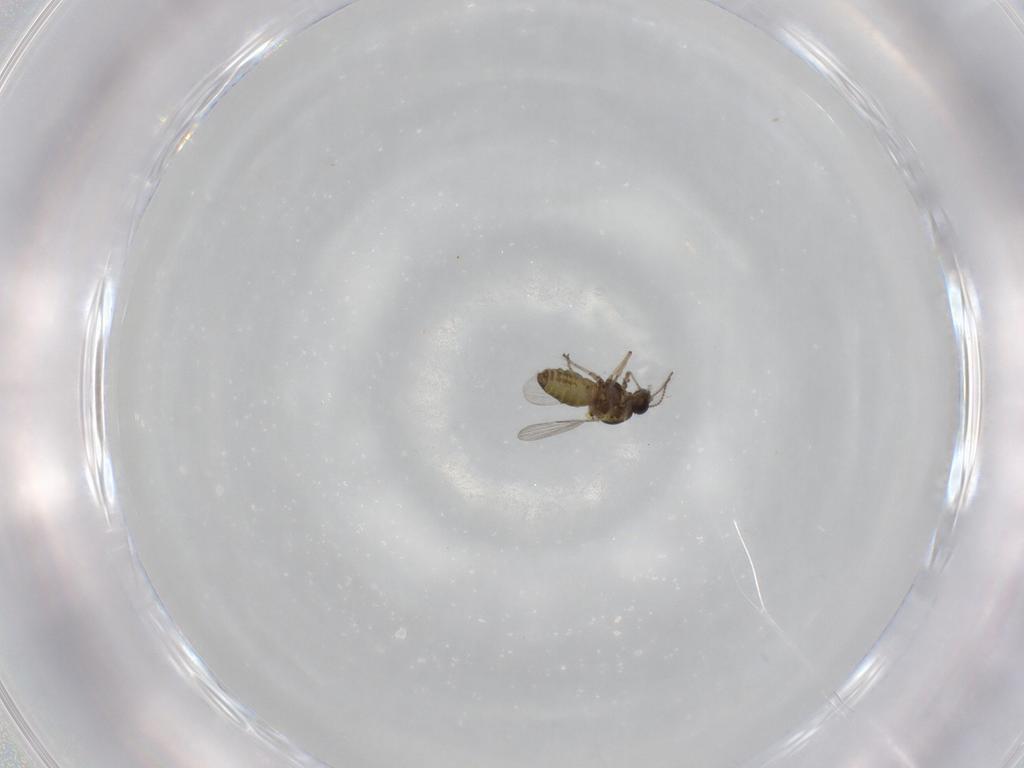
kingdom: Animalia
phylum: Arthropoda
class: Insecta
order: Diptera
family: Ceratopogonidae
